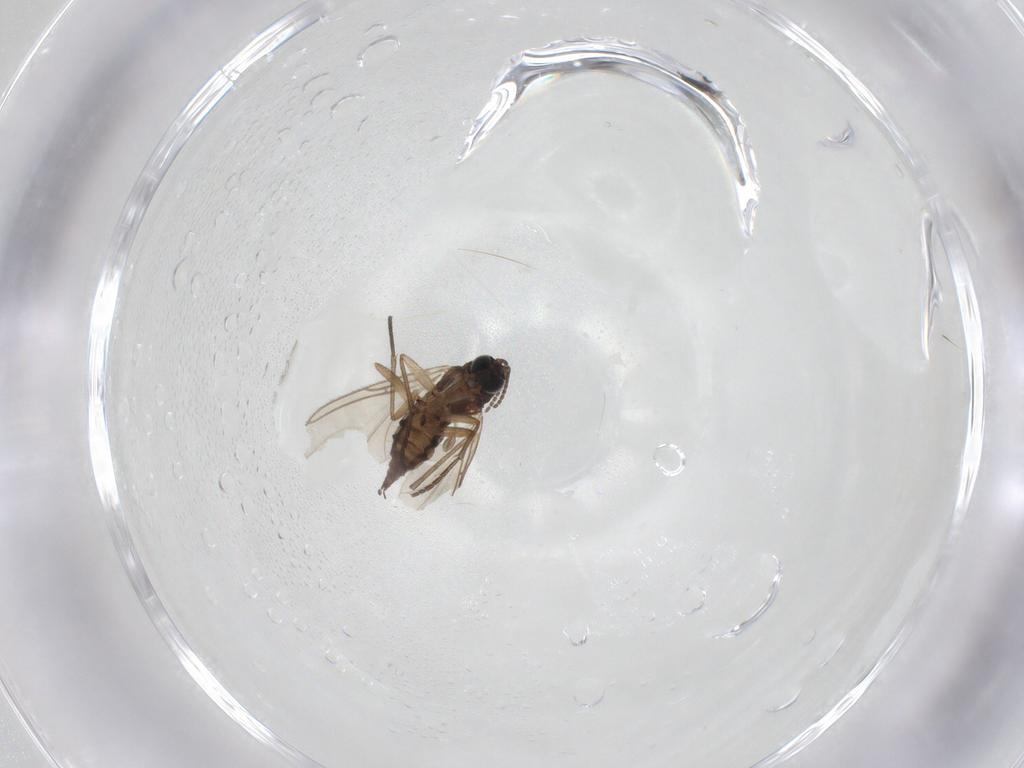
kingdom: Animalia
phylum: Arthropoda
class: Insecta
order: Diptera
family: Sciaridae
